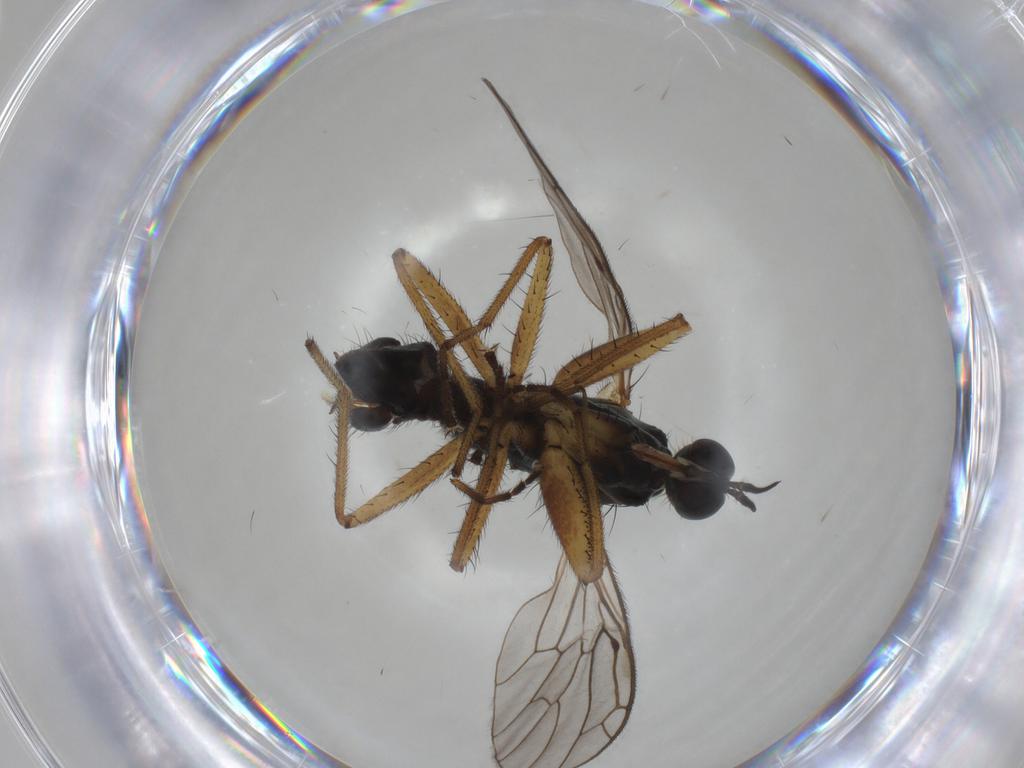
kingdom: Animalia
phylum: Arthropoda
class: Insecta
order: Diptera
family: Chironomidae
